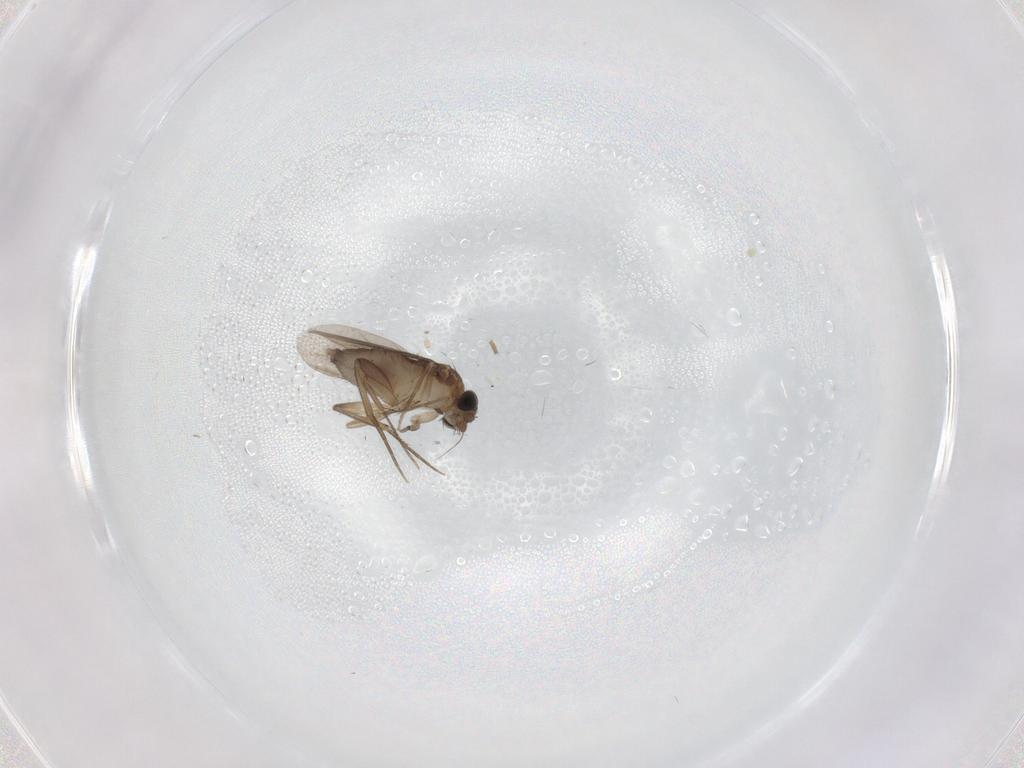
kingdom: Animalia
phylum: Arthropoda
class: Insecta
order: Diptera
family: Phoridae
